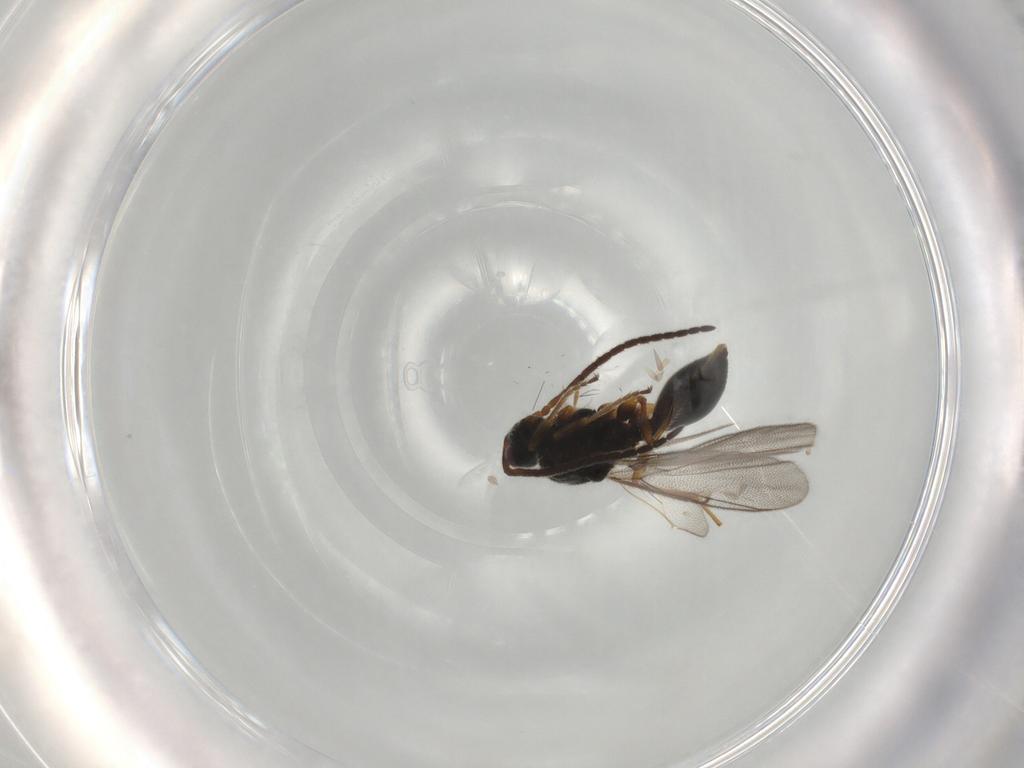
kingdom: Animalia
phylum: Arthropoda
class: Insecta
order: Hymenoptera
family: Diapriidae
